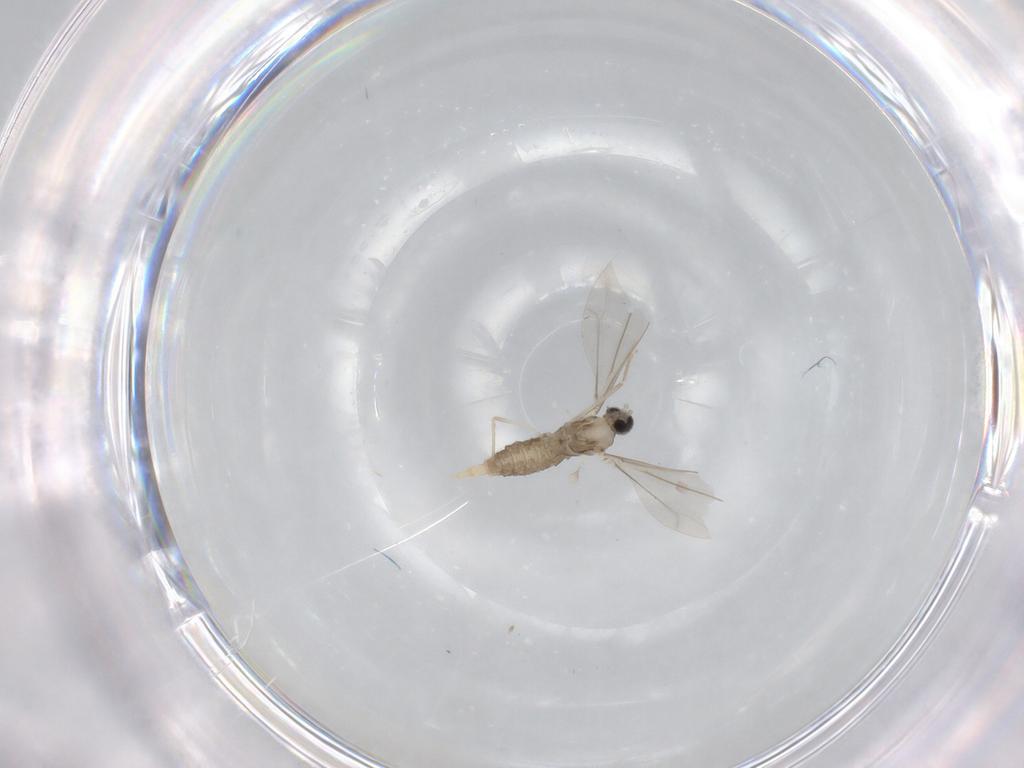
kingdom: Animalia
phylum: Arthropoda
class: Insecta
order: Diptera
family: Cecidomyiidae
